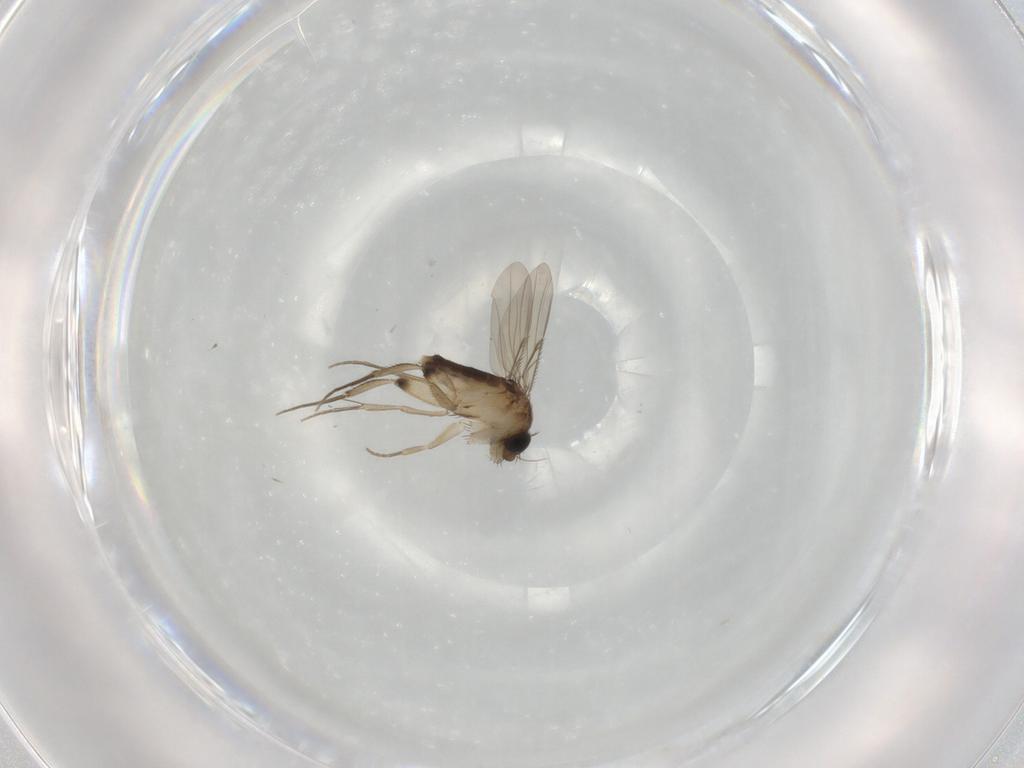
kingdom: Animalia
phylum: Arthropoda
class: Insecta
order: Diptera
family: Phoridae
